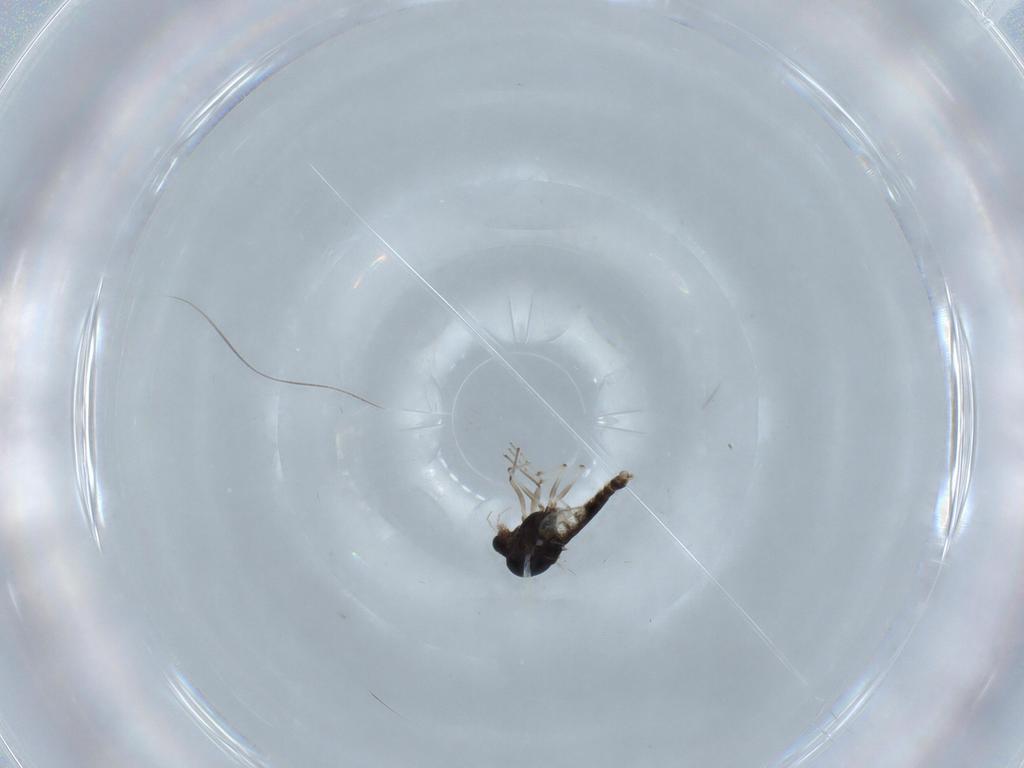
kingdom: Animalia
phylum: Arthropoda
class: Insecta
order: Diptera
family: Chironomidae
